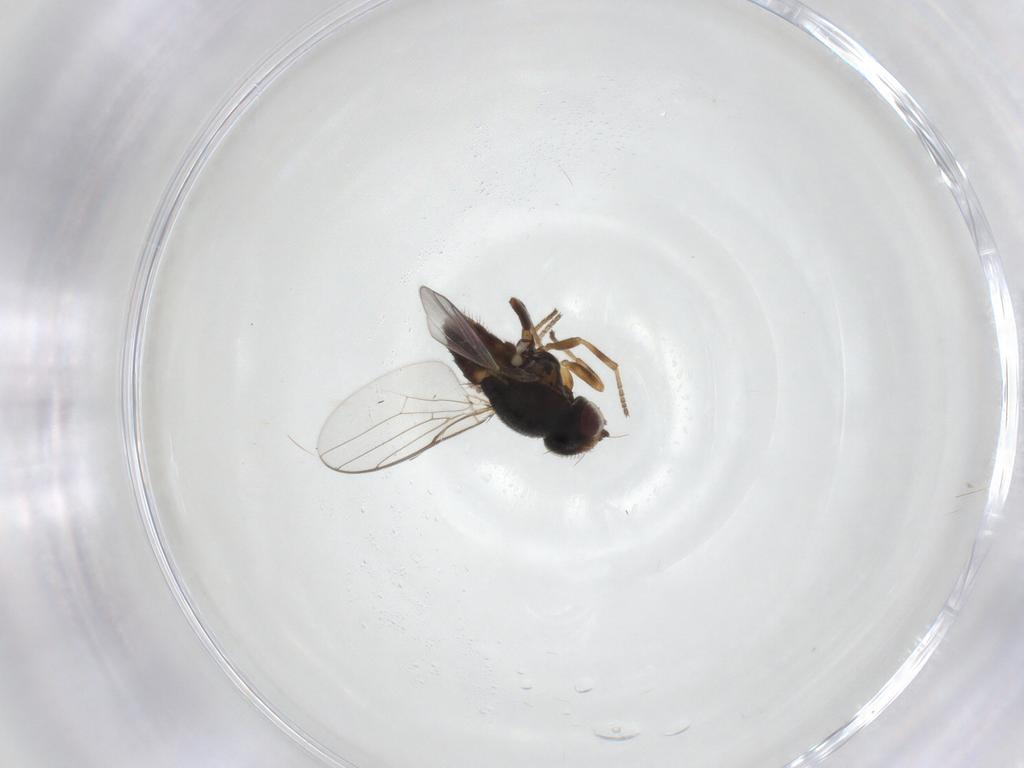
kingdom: Animalia
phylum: Arthropoda
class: Insecta
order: Diptera
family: Chloropidae
